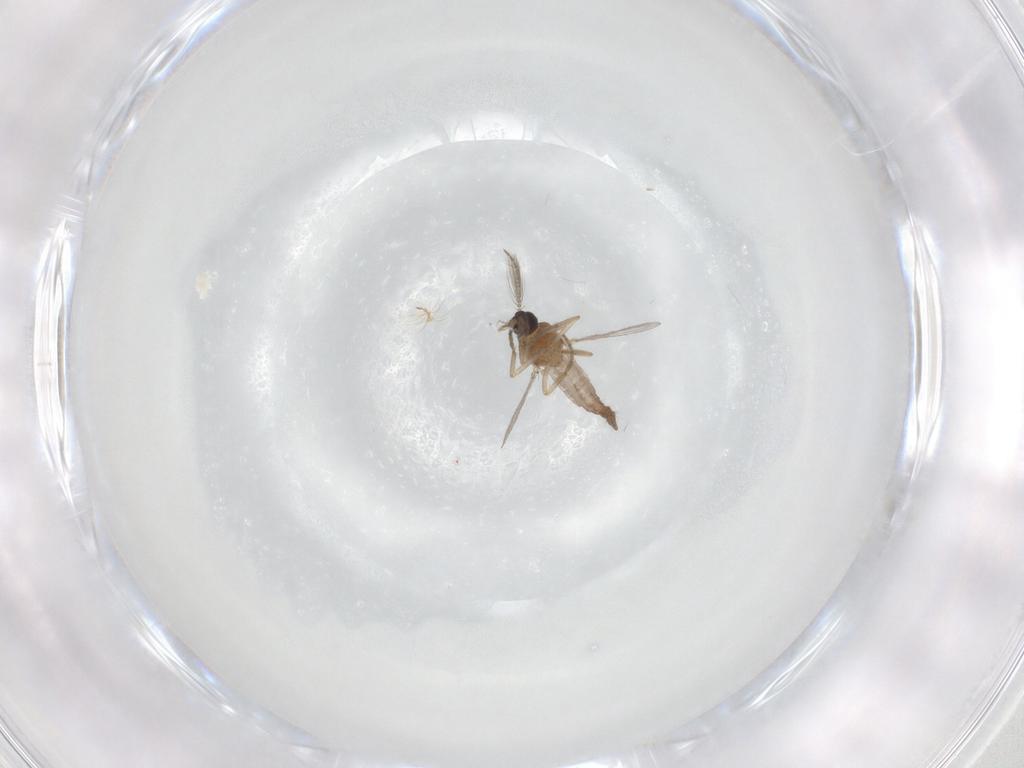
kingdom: Animalia
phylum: Arthropoda
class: Insecta
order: Diptera
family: Chironomidae
